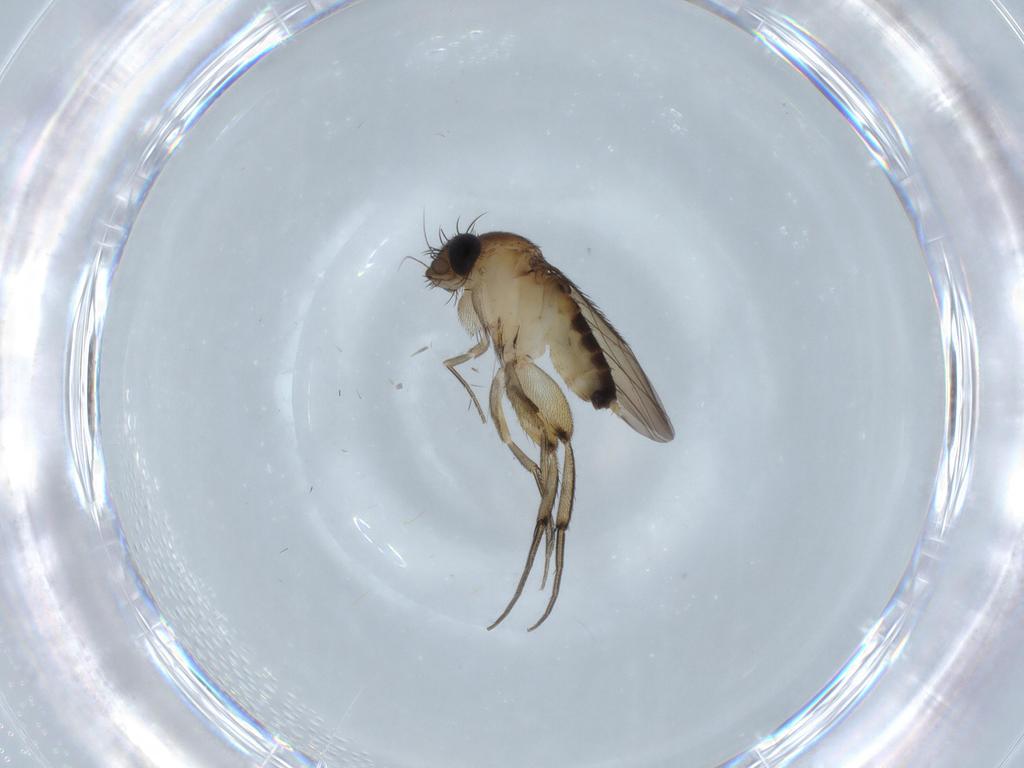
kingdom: Animalia
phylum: Arthropoda
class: Insecta
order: Diptera
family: Phoridae
